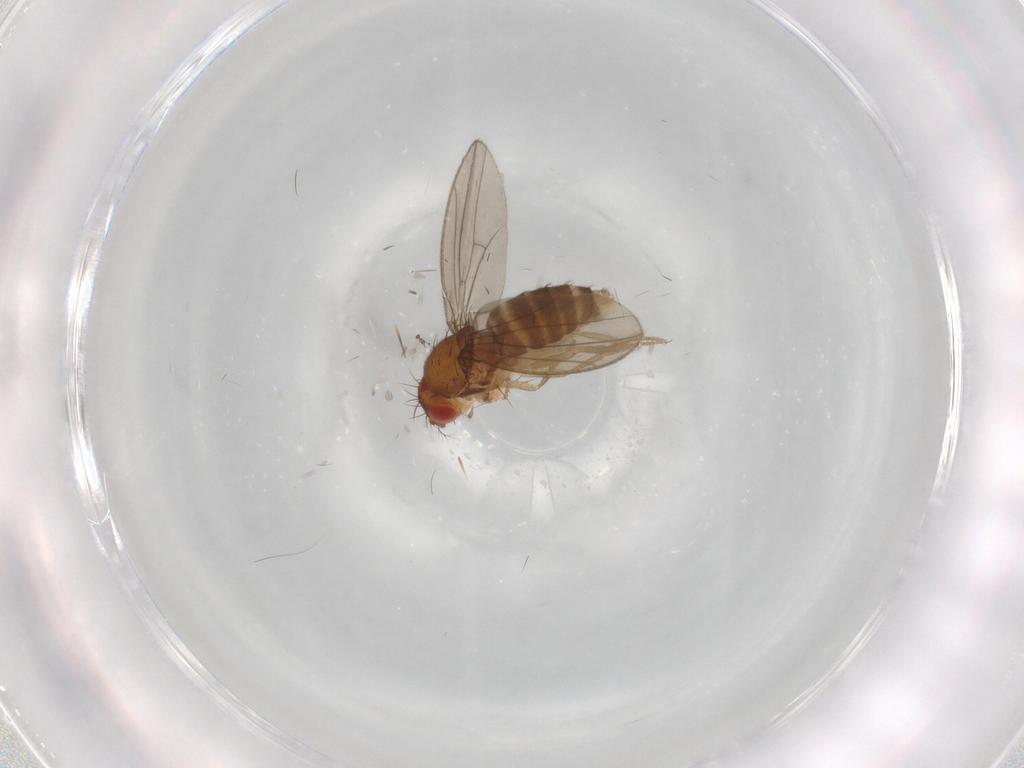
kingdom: Animalia
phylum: Arthropoda
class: Insecta
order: Diptera
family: Drosophilidae
